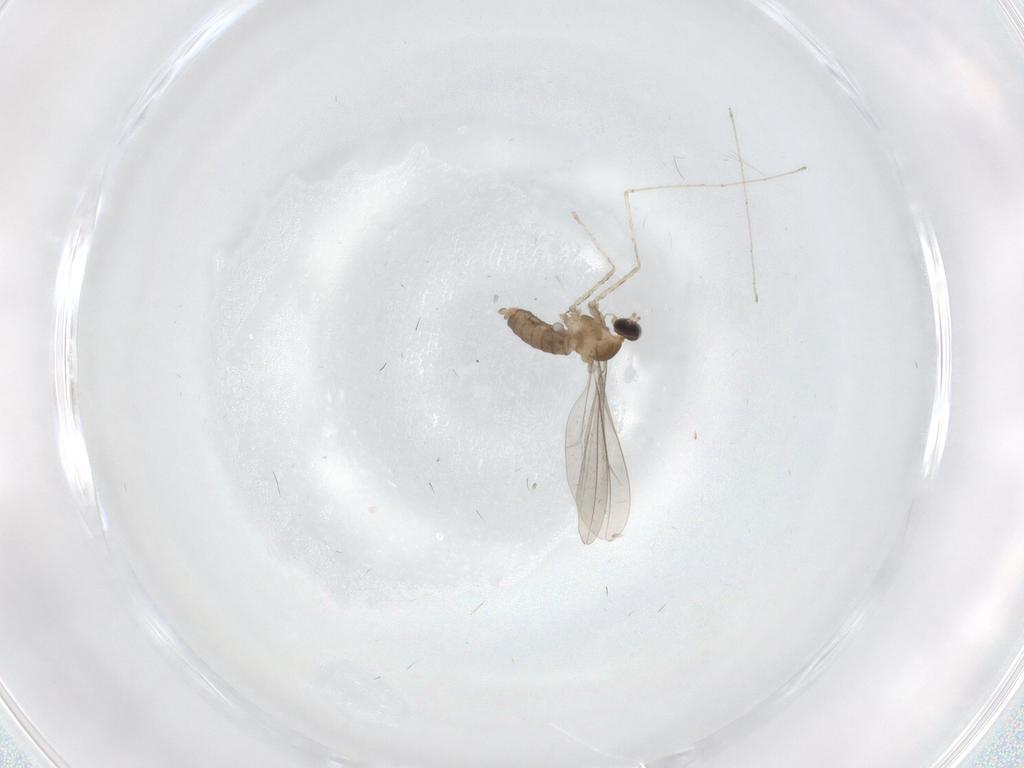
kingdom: Animalia
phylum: Arthropoda
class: Insecta
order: Diptera
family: Cecidomyiidae
